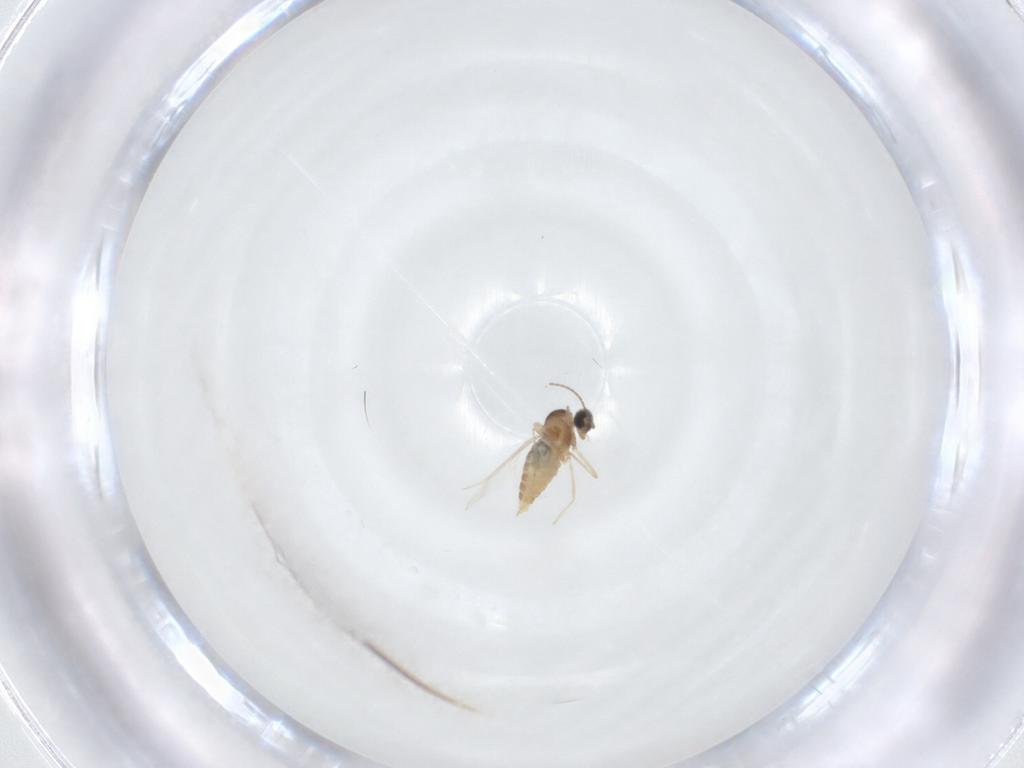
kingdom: Animalia
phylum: Arthropoda
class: Insecta
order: Diptera
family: Cecidomyiidae
